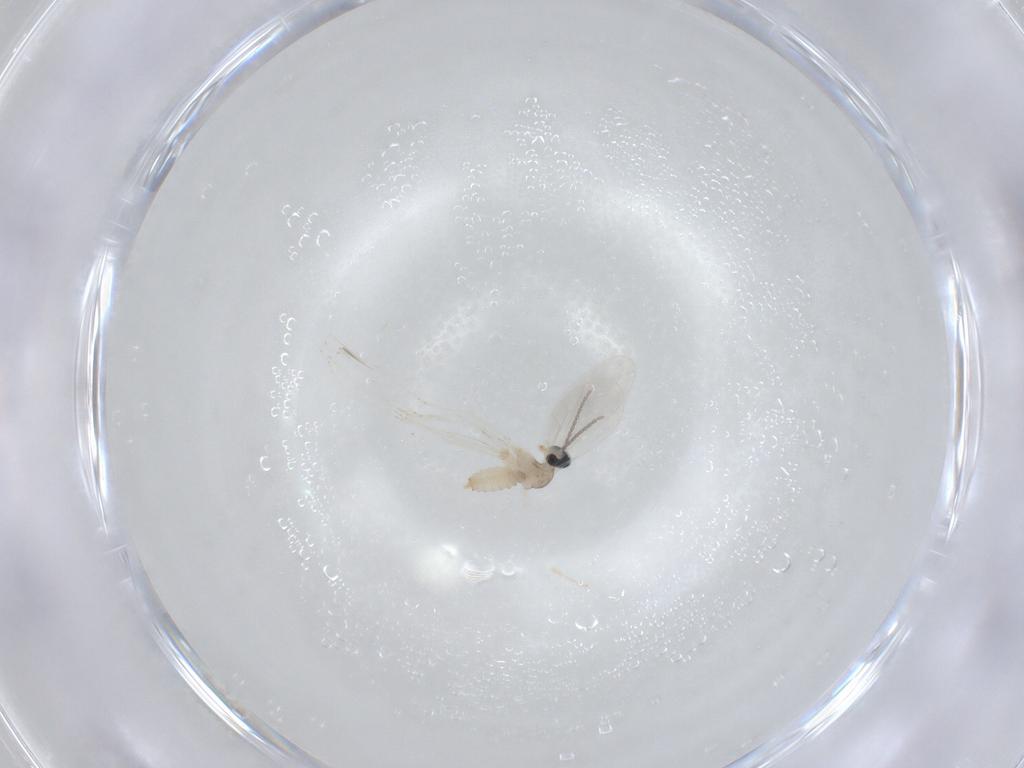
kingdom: Animalia
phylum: Arthropoda
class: Insecta
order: Diptera
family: Cecidomyiidae
